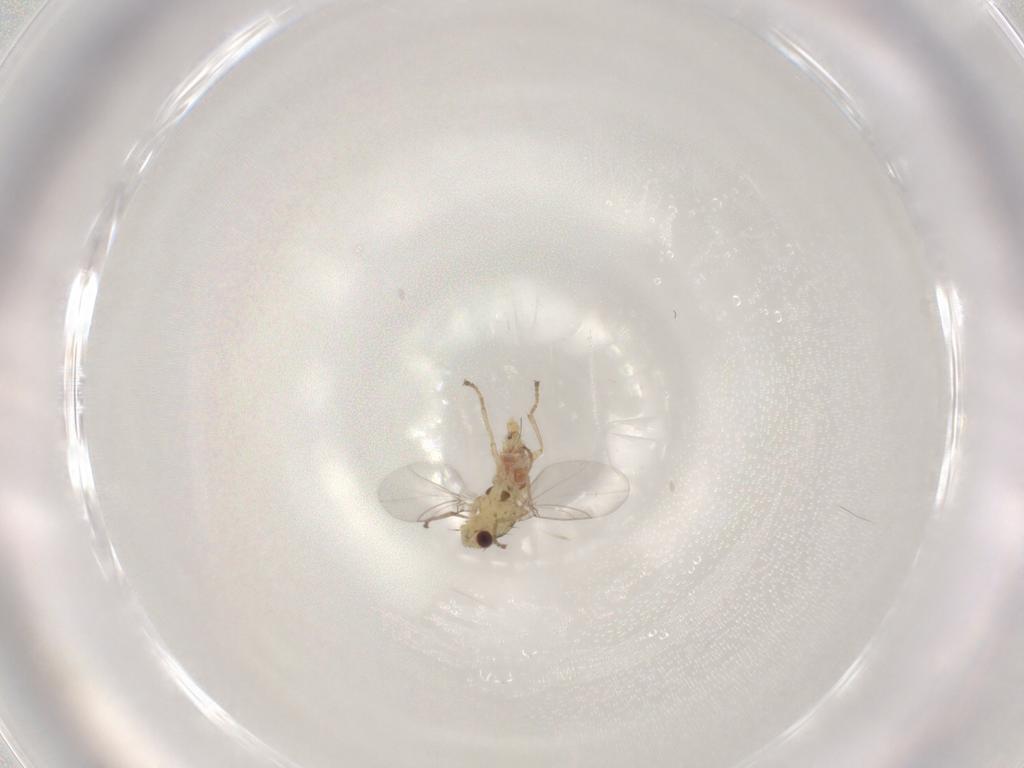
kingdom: Animalia
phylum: Arthropoda
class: Insecta
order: Diptera
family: Agromyzidae
